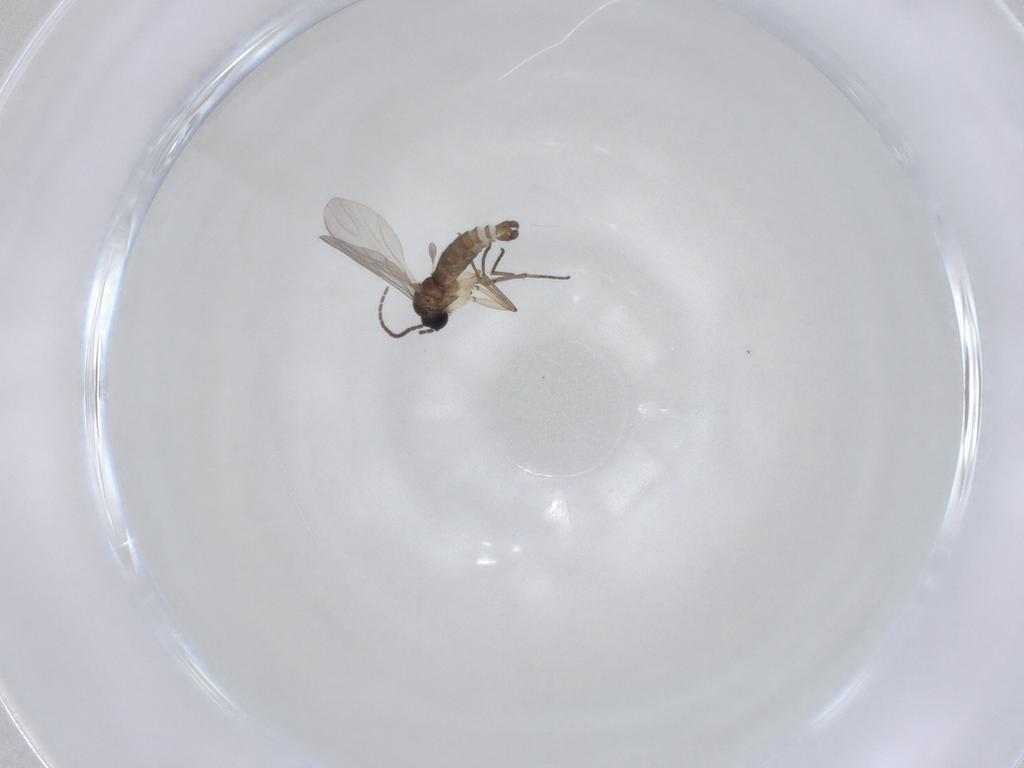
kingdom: Animalia
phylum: Arthropoda
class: Insecta
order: Diptera
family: Sciaridae
